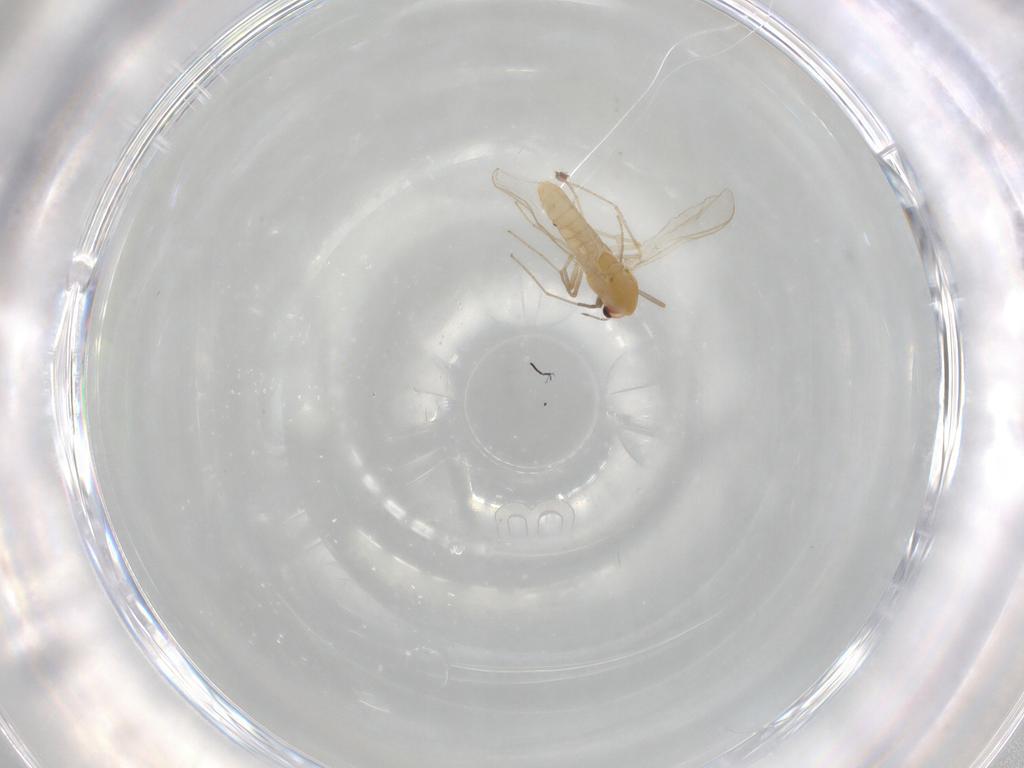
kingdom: Animalia
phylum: Arthropoda
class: Insecta
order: Diptera
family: Chironomidae
